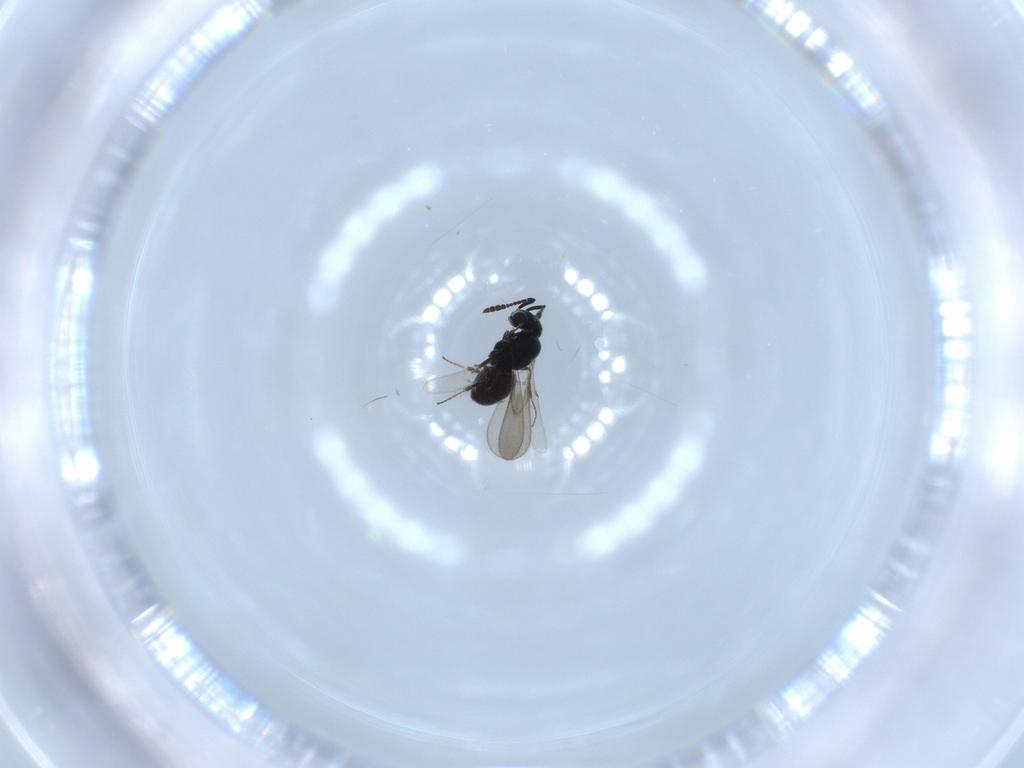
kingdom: Animalia
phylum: Arthropoda
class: Insecta
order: Hymenoptera
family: Scelionidae
